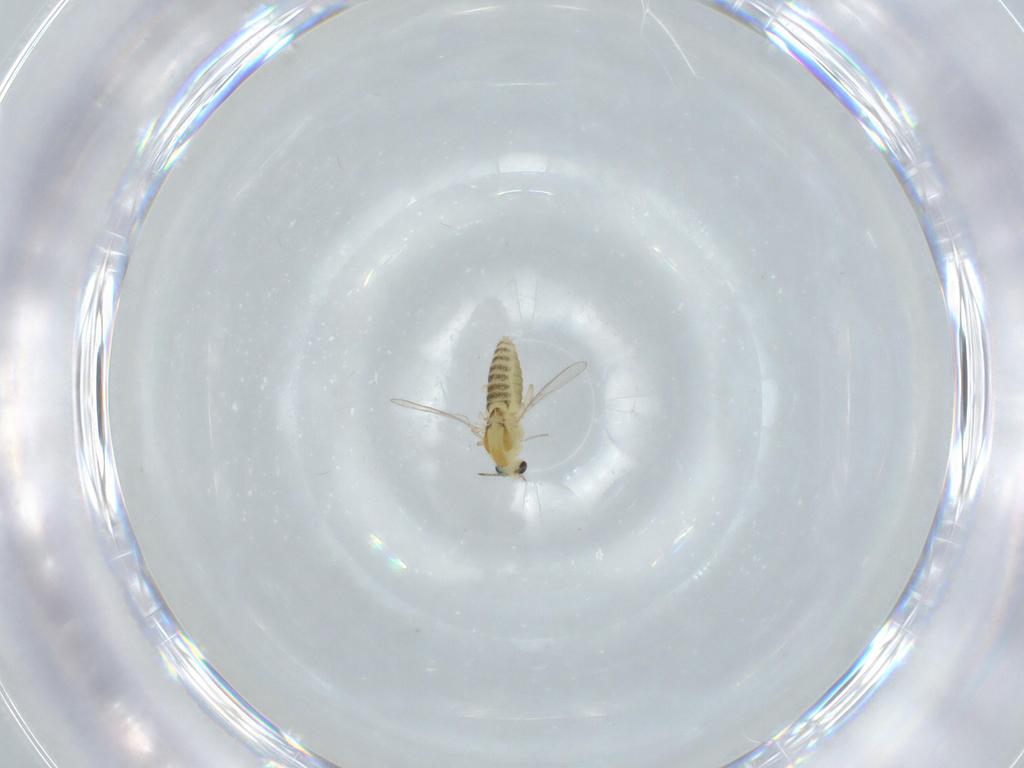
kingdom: Animalia
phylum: Arthropoda
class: Insecta
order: Diptera
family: Chironomidae
